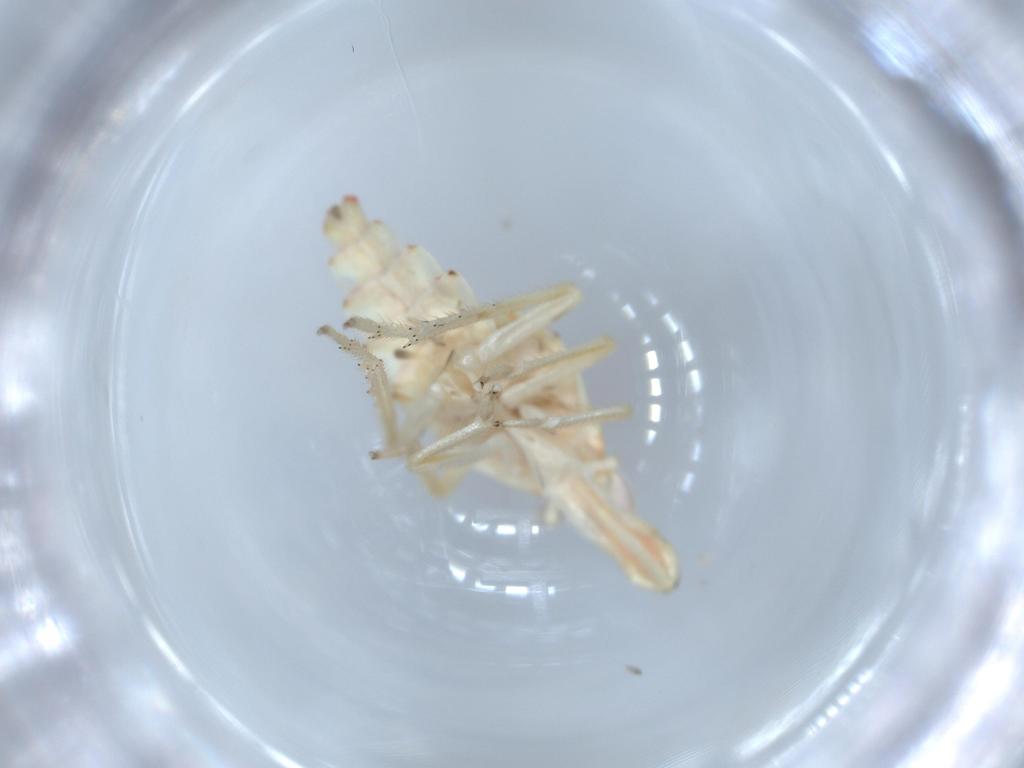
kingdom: Animalia
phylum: Arthropoda
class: Insecta
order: Hemiptera
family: Tropiduchidae
